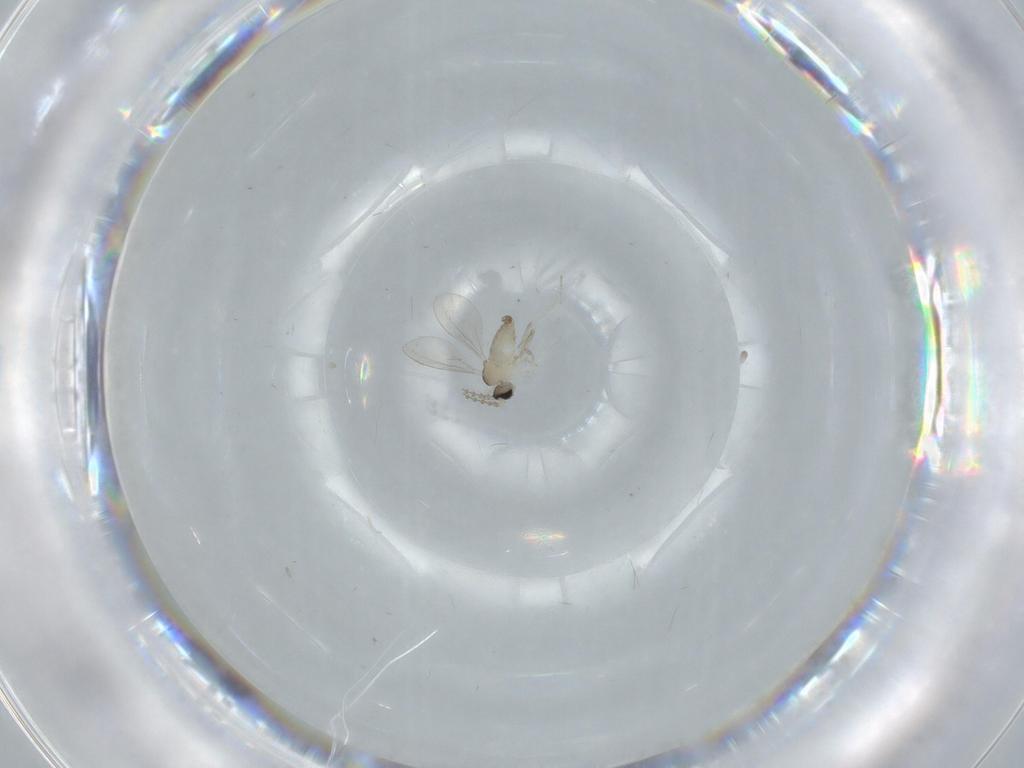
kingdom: Animalia
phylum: Arthropoda
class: Insecta
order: Diptera
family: Cecidomyiidae
